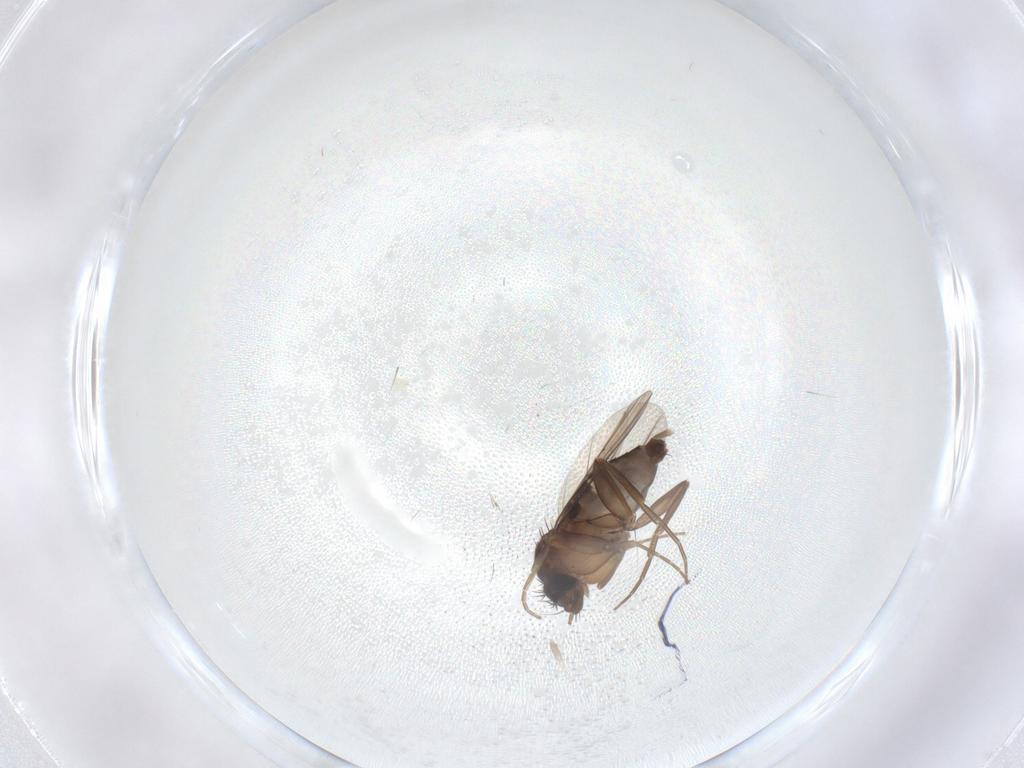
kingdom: Animalia
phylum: Arthropoda
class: Insecta
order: Diptera
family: Phoridae
